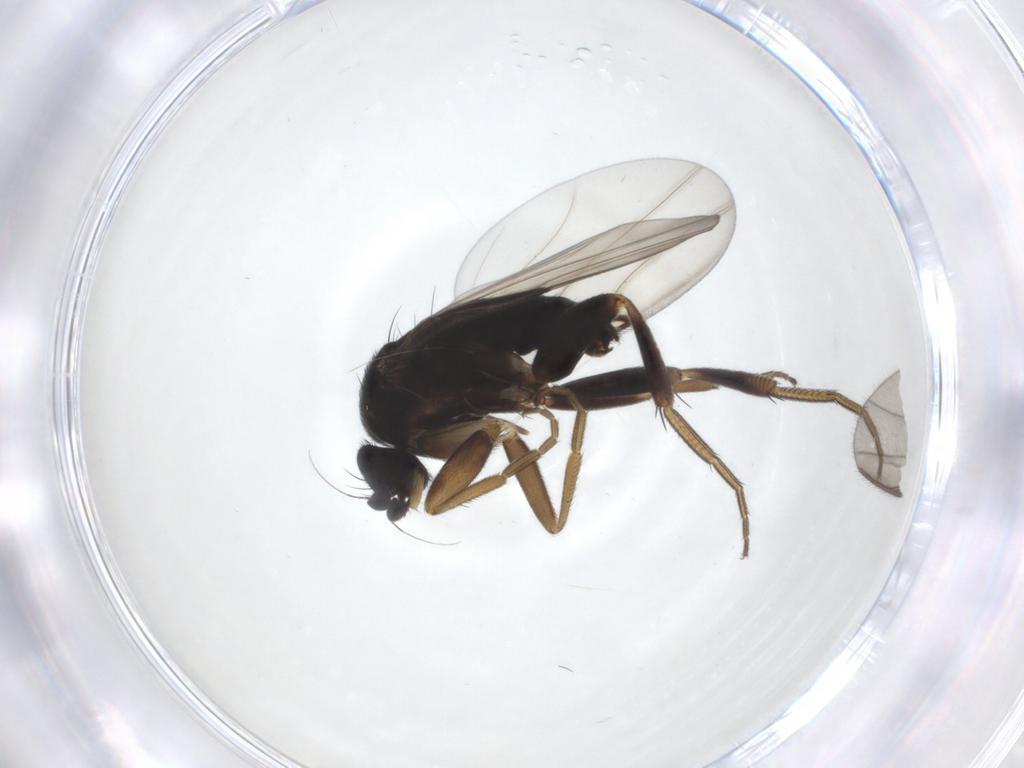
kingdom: Animalia
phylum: Arthropoda
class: Insecta
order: Diptera
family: Phoridae
